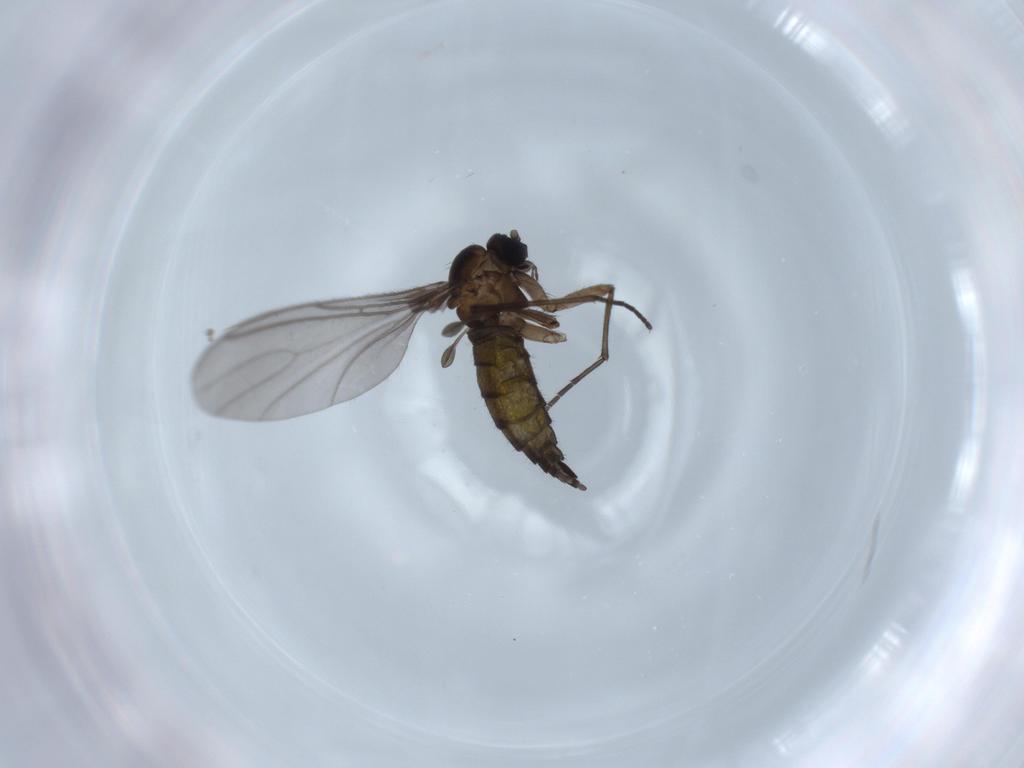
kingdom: Animalia
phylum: Arthropoda
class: Insecta
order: Diptera
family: Sciaridae
